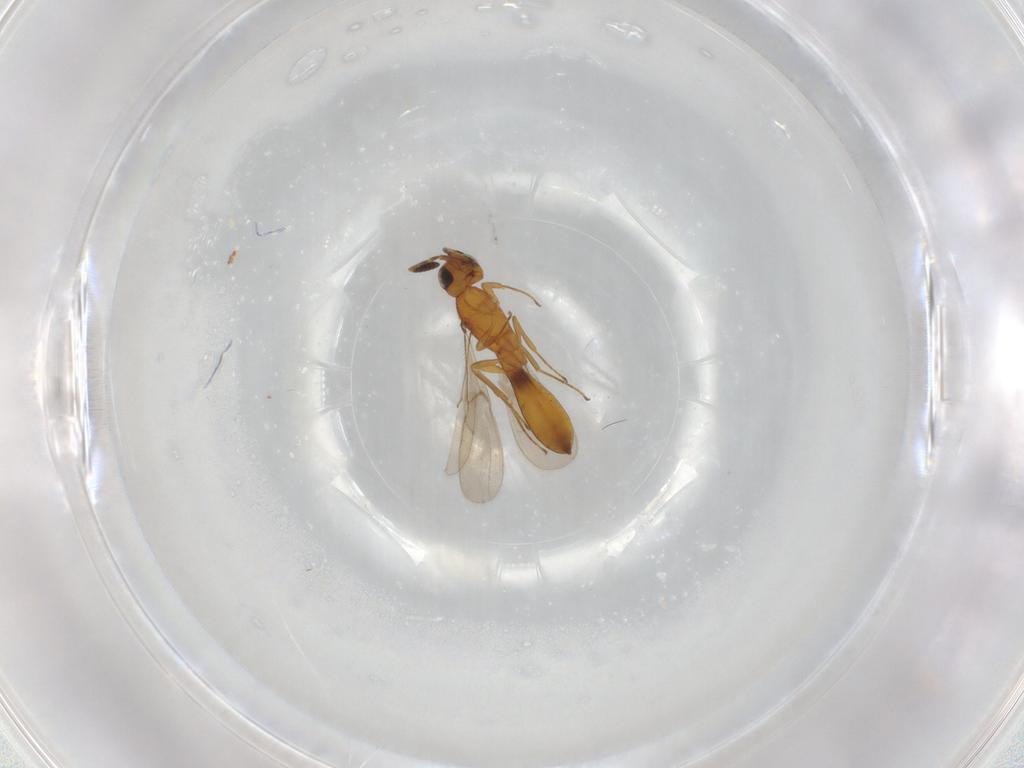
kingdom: Animalia
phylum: Arthropoda
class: Insecta
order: Hymenoptera
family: Scelionidae
